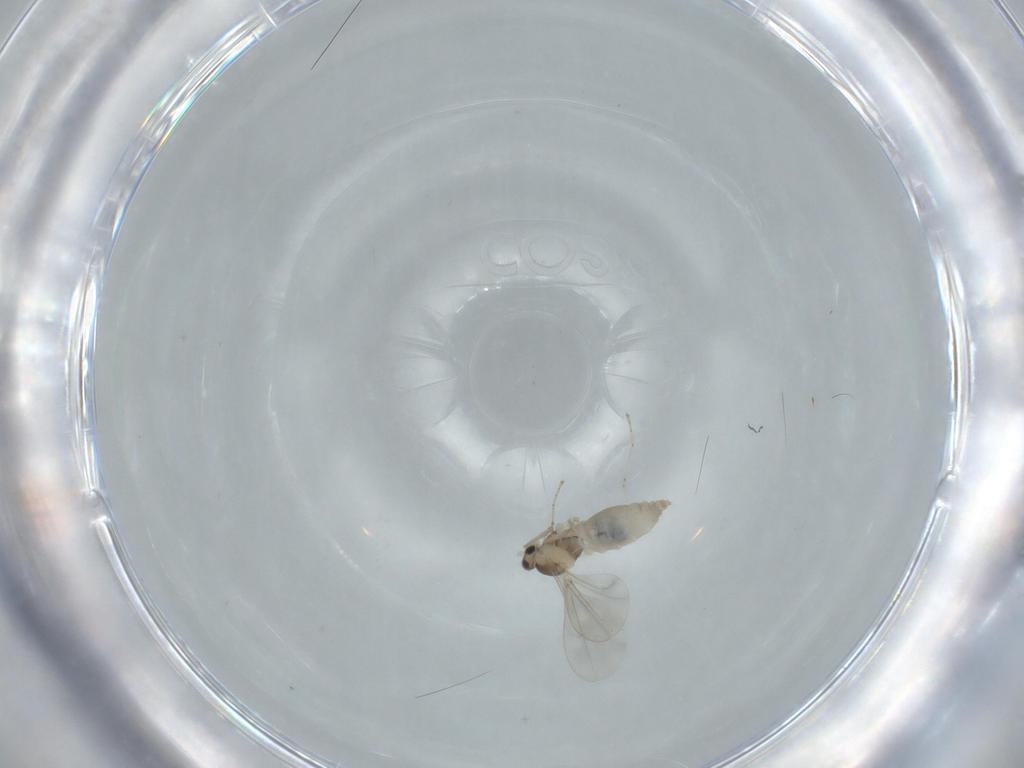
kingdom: Animalia
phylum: Arthropoda
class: Insecta
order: Diptera
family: Cecidomyiidae
